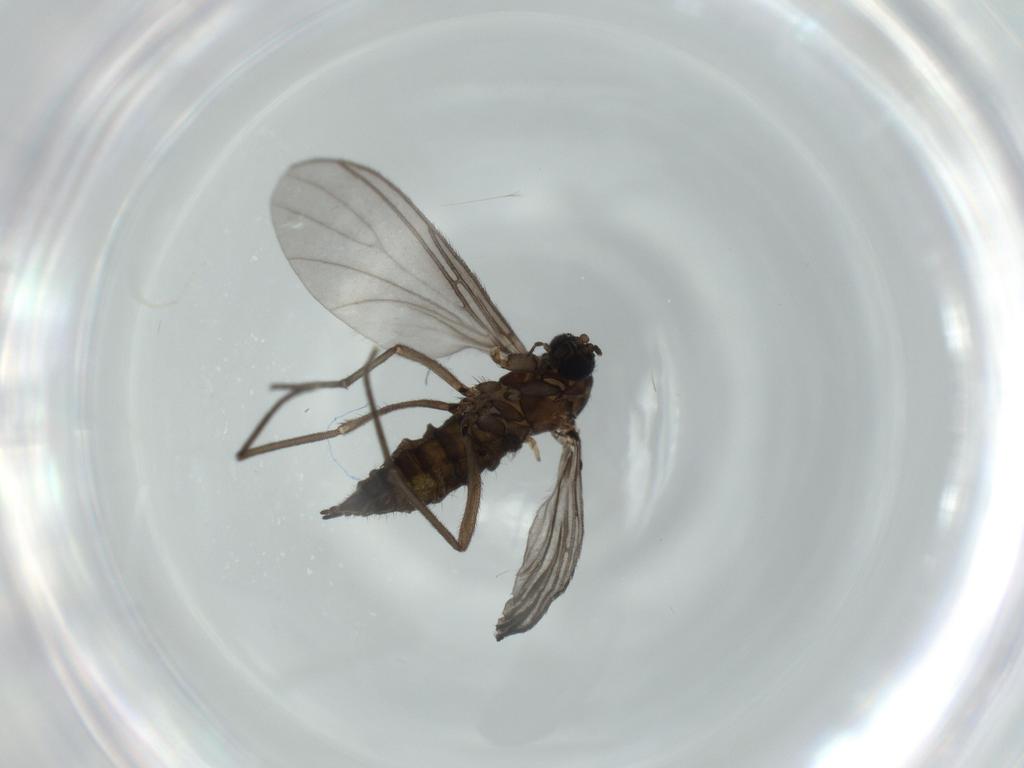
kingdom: Animalia
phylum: Arthropoda
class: Insecta
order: Diptera
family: Sciaridae
